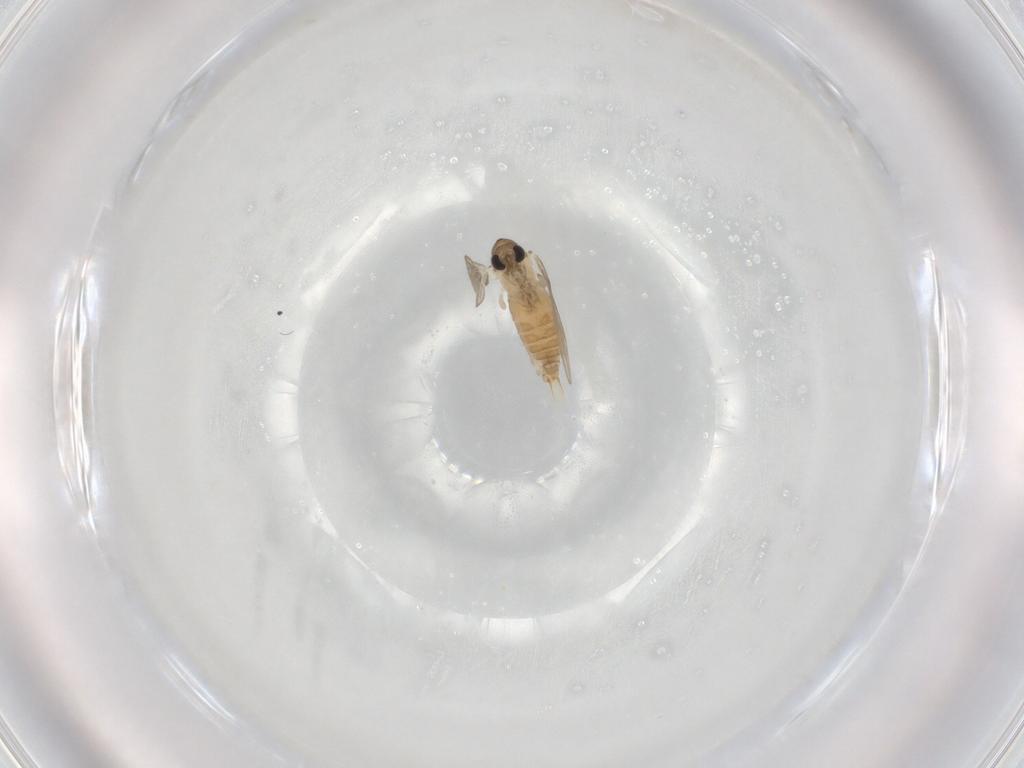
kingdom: Animalia
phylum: Arthropoda
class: Insecta
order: Diptera
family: Psychodidae
